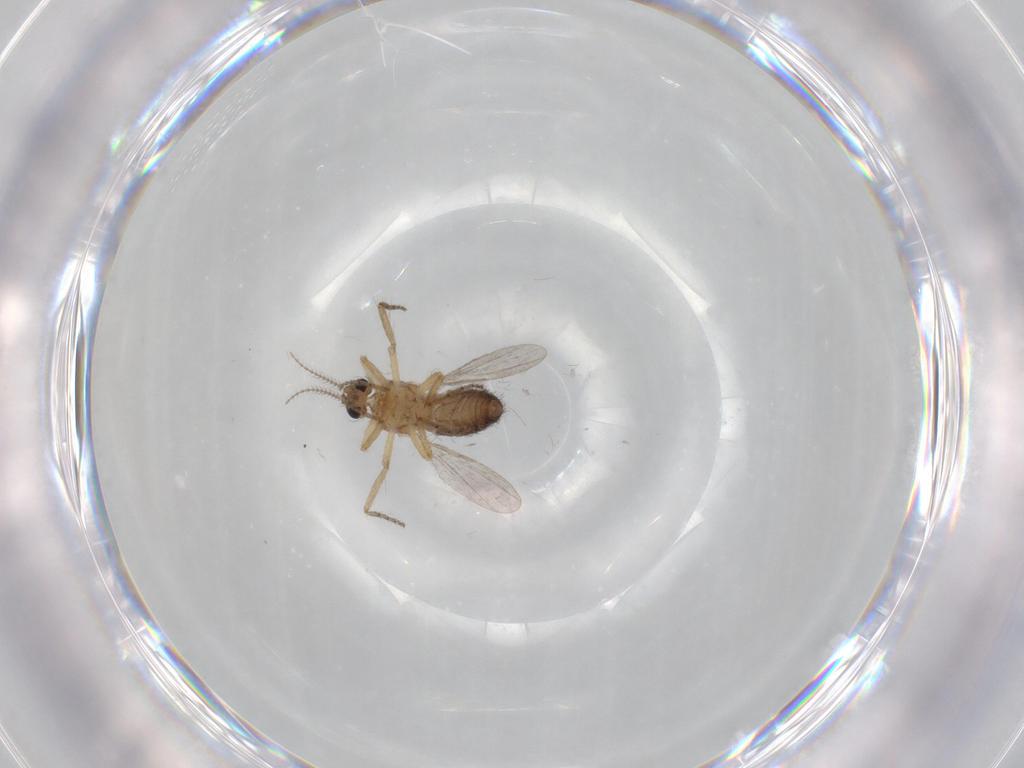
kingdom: Animalia
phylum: Arthropoda
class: Insecta
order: Diptera
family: Ceratopogonidae
